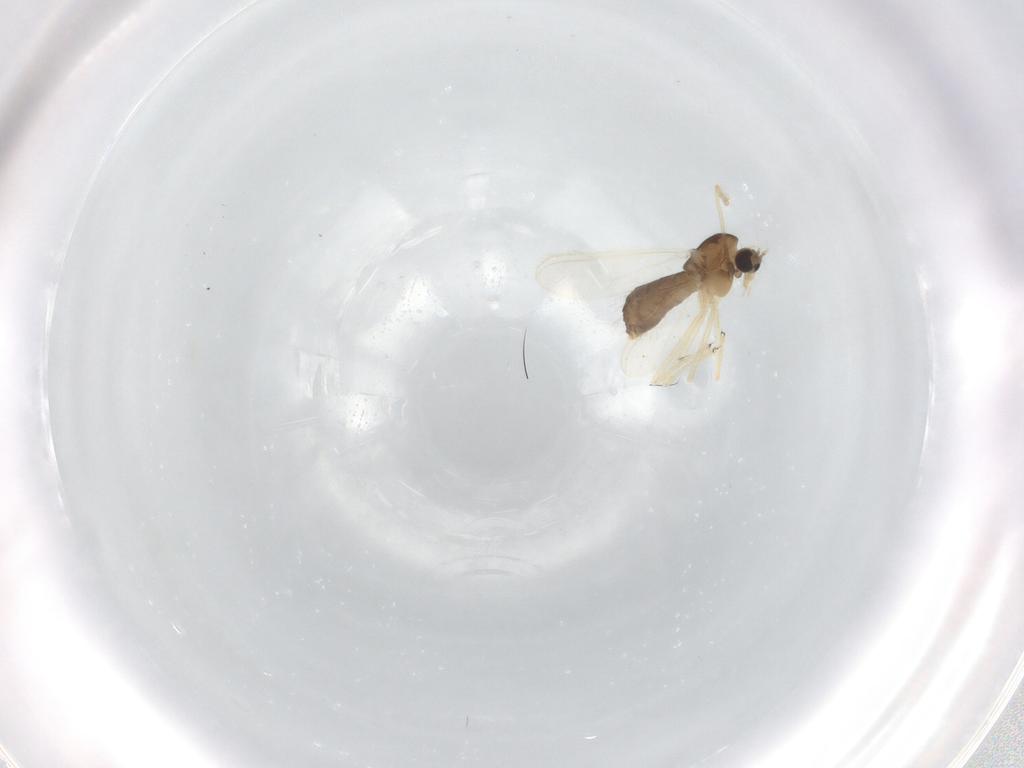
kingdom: Animalia
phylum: Arthropoda
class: Insecta
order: Diptera
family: Chironomidae
